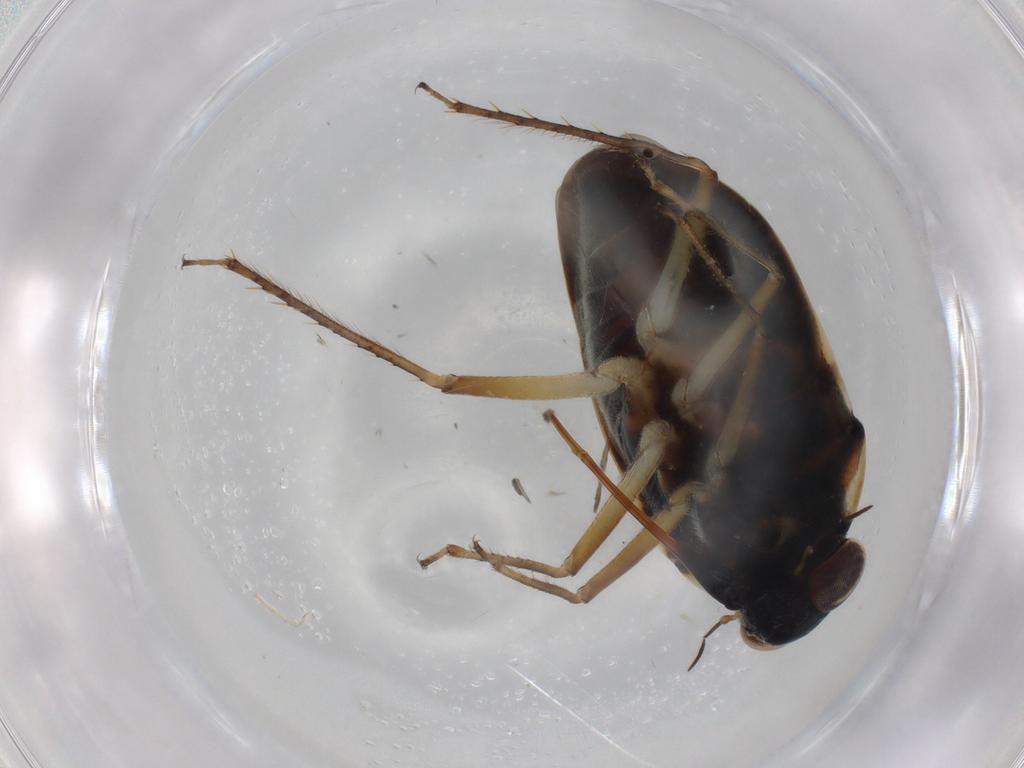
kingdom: Animalia
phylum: Arthropoda
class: Insecta
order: Hemiptera
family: Ochteridae
